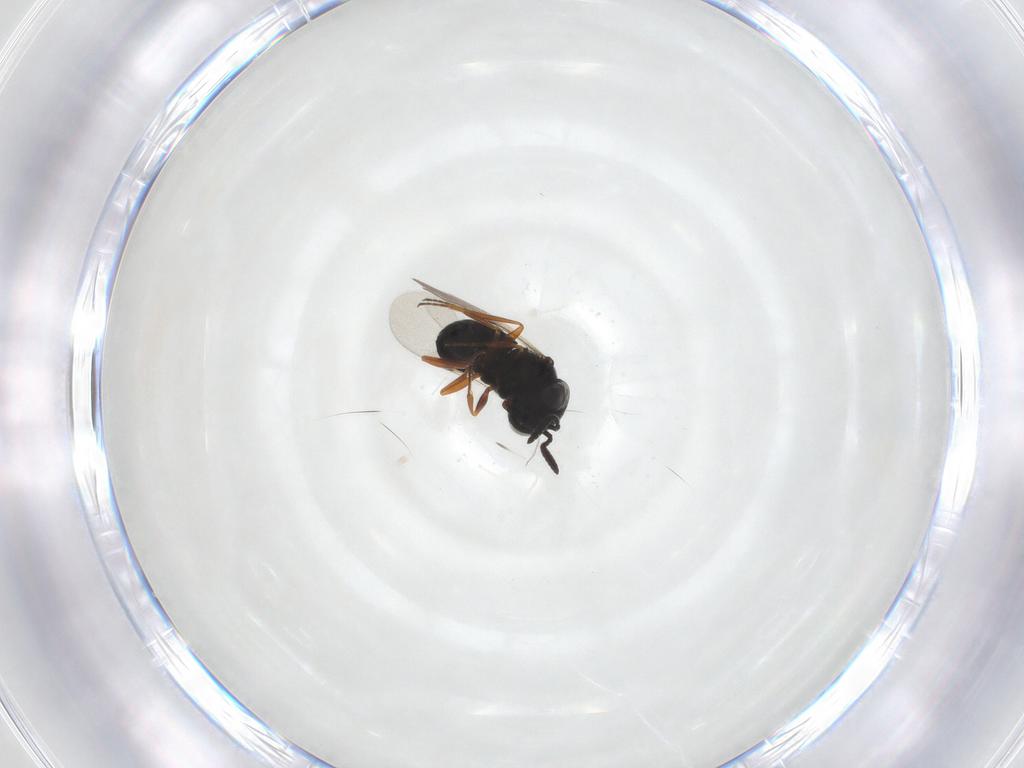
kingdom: Animalia
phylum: Arthropoda
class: Insecta
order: Hymenoptera
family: Scelionidae
